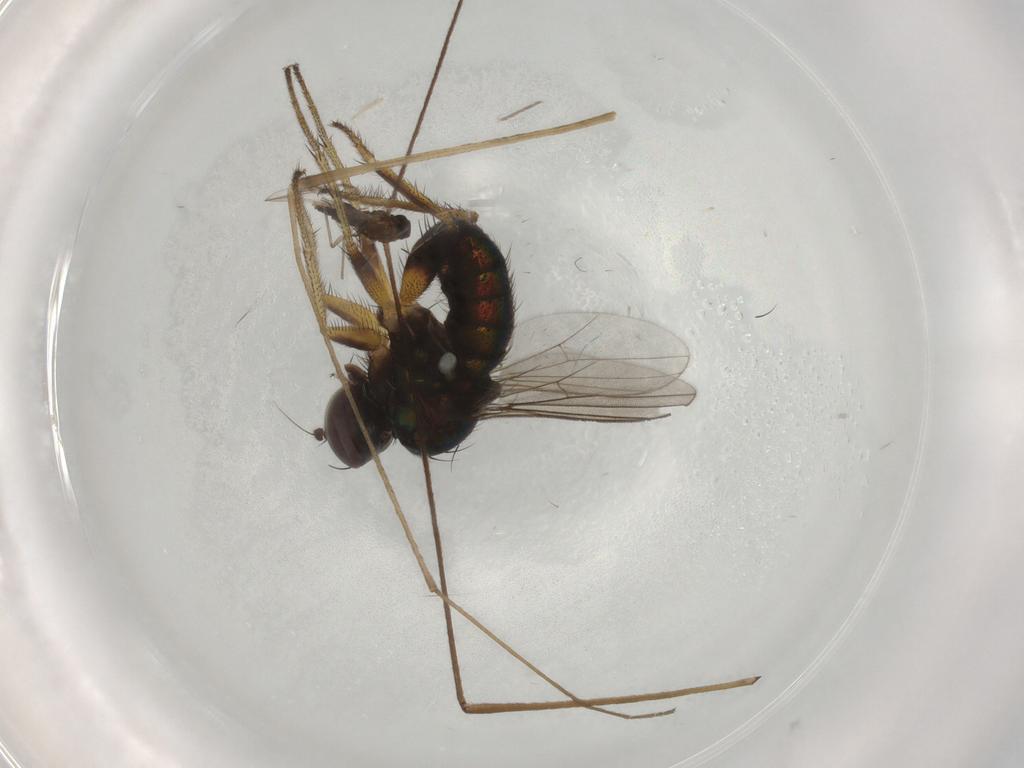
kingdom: Animalia
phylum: Arthropoda
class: Insecta
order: Diptera
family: Dolichopodidae
